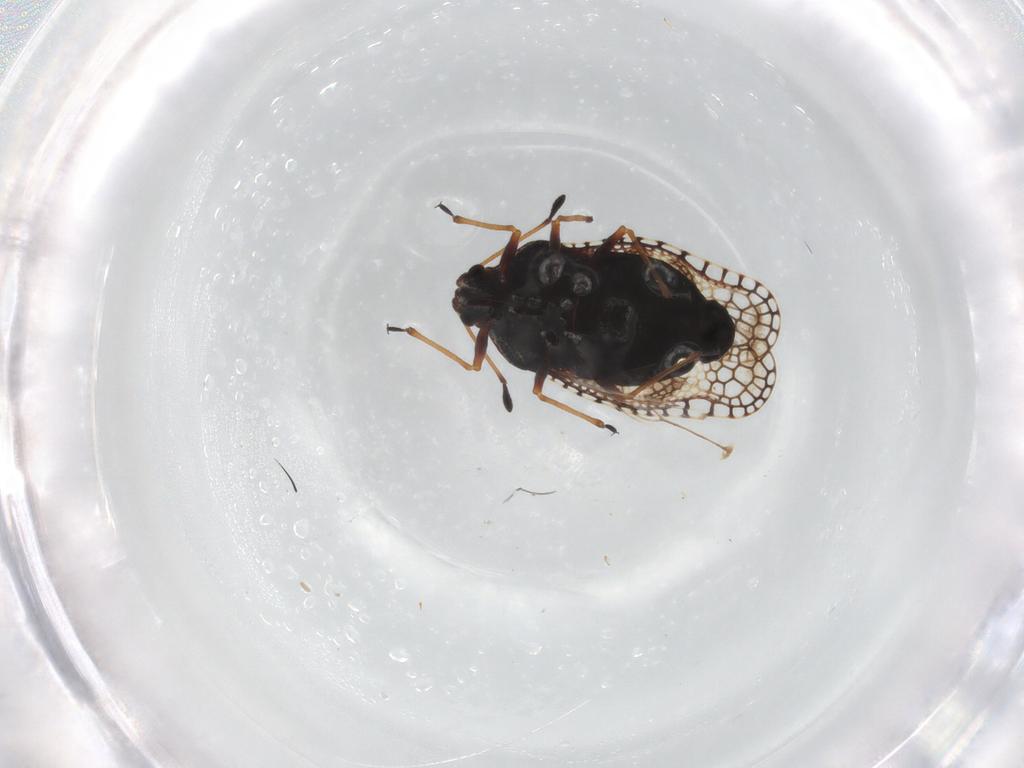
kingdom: Animalia
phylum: Arthropoda
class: Insecta
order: Hemiptera
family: Tingidae
